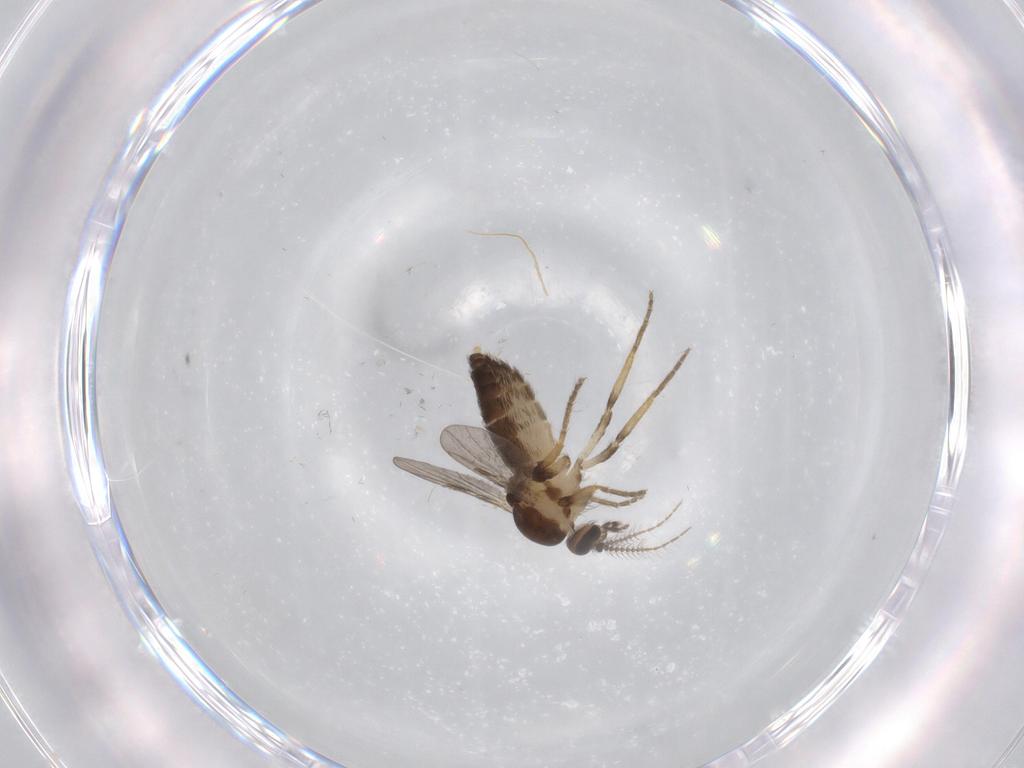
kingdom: Animalia
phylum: Arthropoda
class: Insecta
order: Diptera
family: Ceratopogonidae
